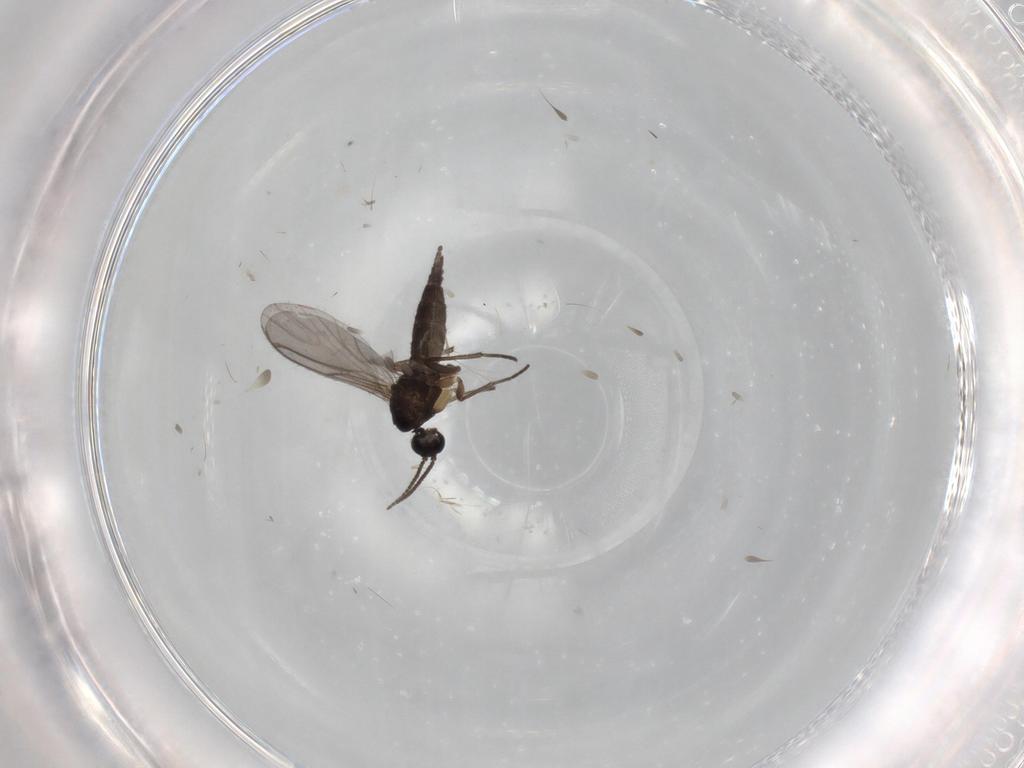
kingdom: Animalia
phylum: Arthropoda
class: Insecta
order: Diptera
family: Sciaridae
